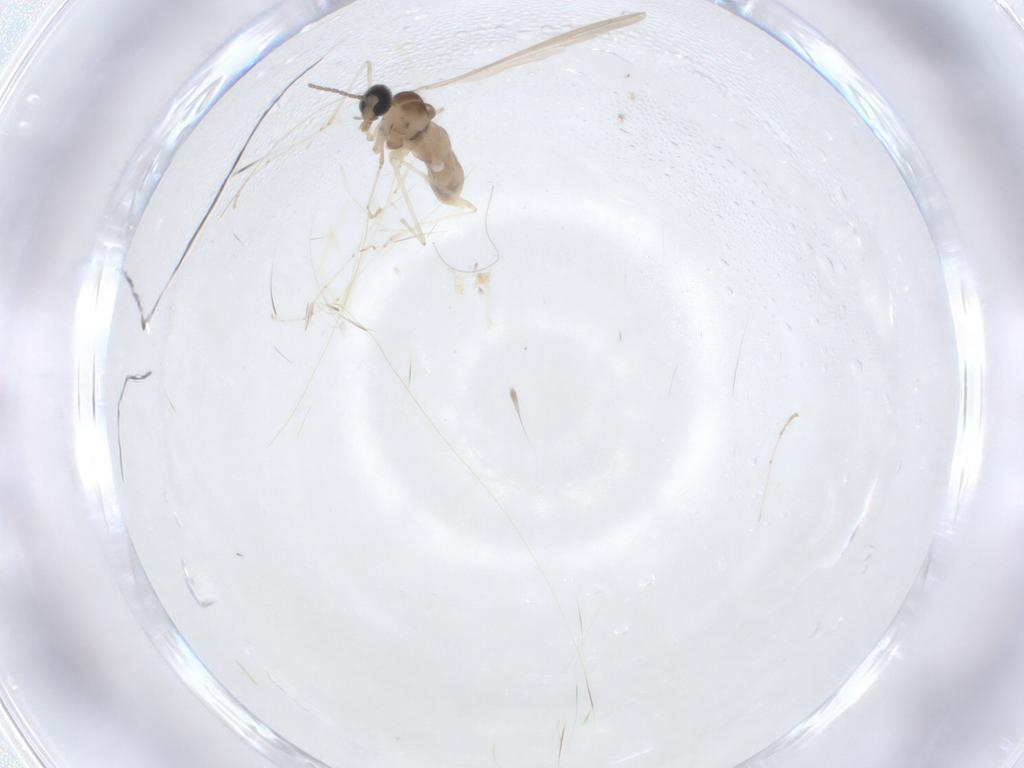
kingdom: Animalia
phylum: Arthropoda
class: Insecta
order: Diptera
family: Cecidomyiidae
